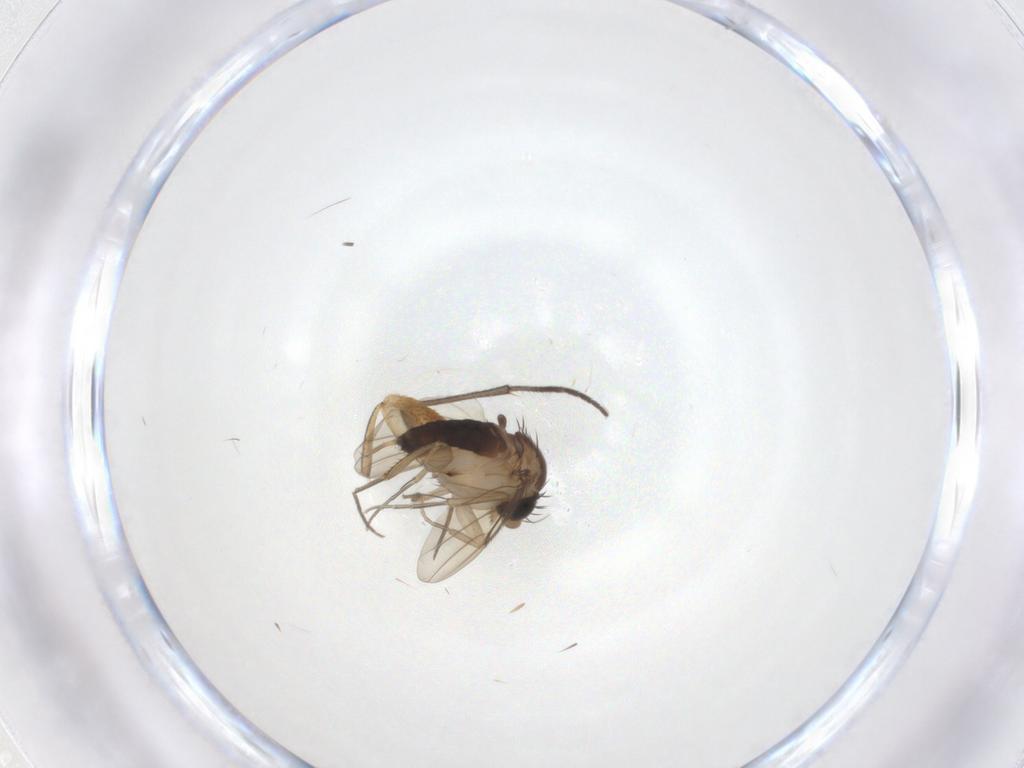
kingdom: Animalia
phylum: Arthropoda
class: Insecta
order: Diptera
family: Phoridae
